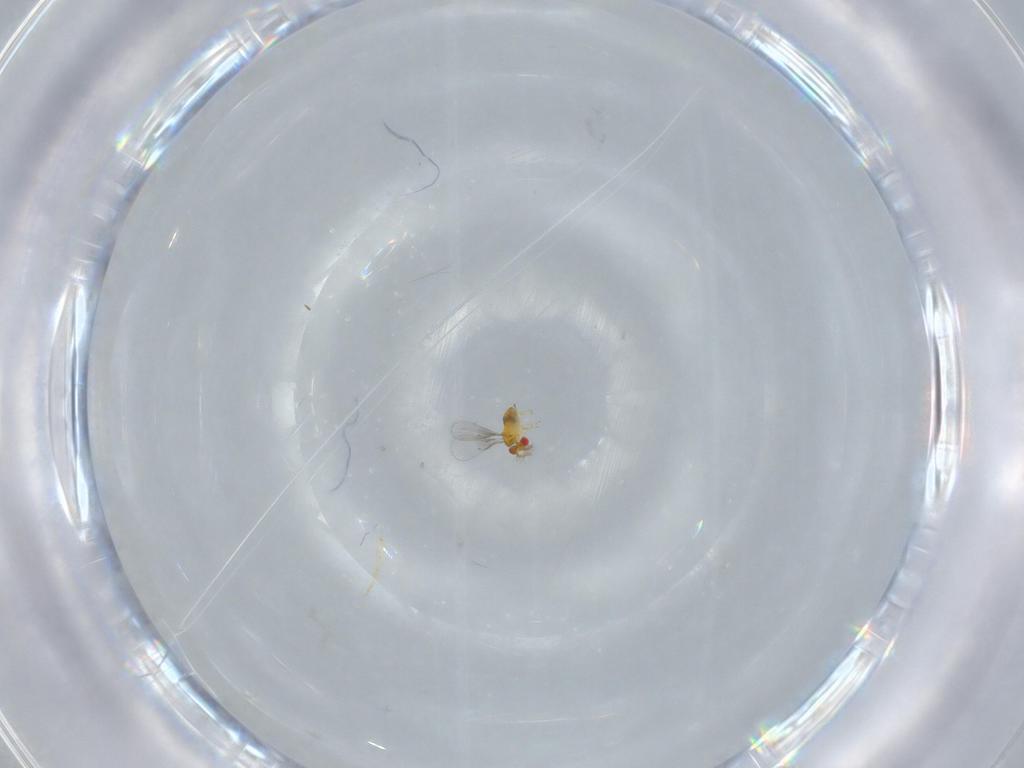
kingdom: Animalia
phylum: Arthropoda
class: Insecta
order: Hymenoptera
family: Trichogrammatidae
